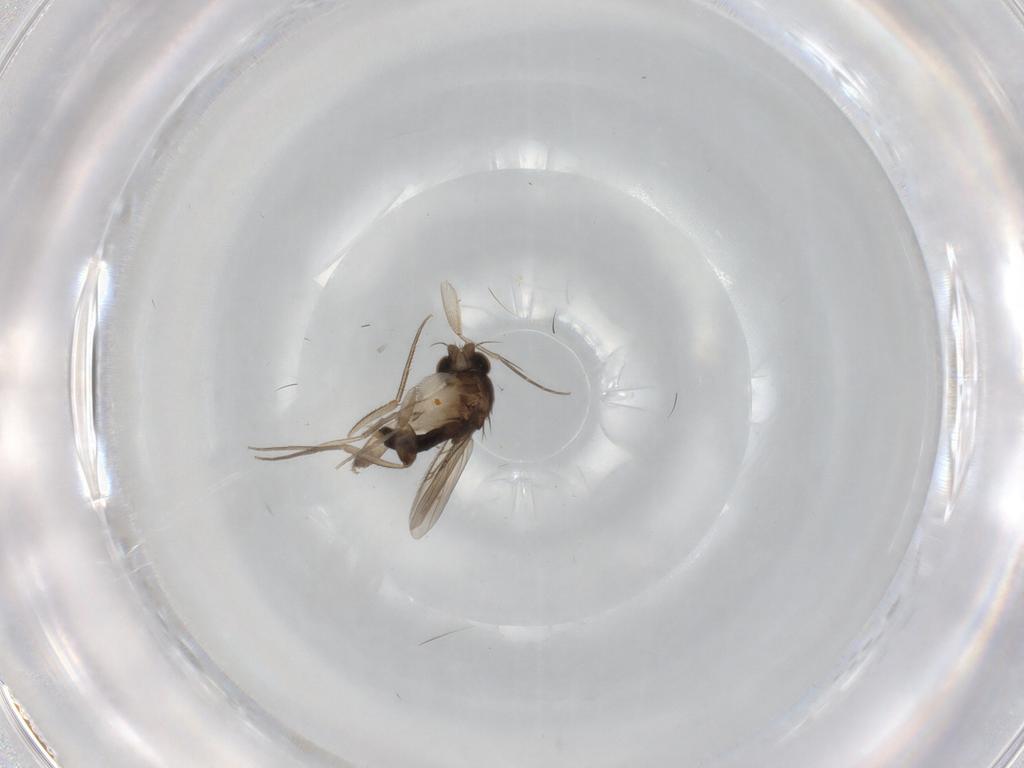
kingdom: Animalia
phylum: Arthropoda
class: Insecta
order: Diptera
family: Phoridae
